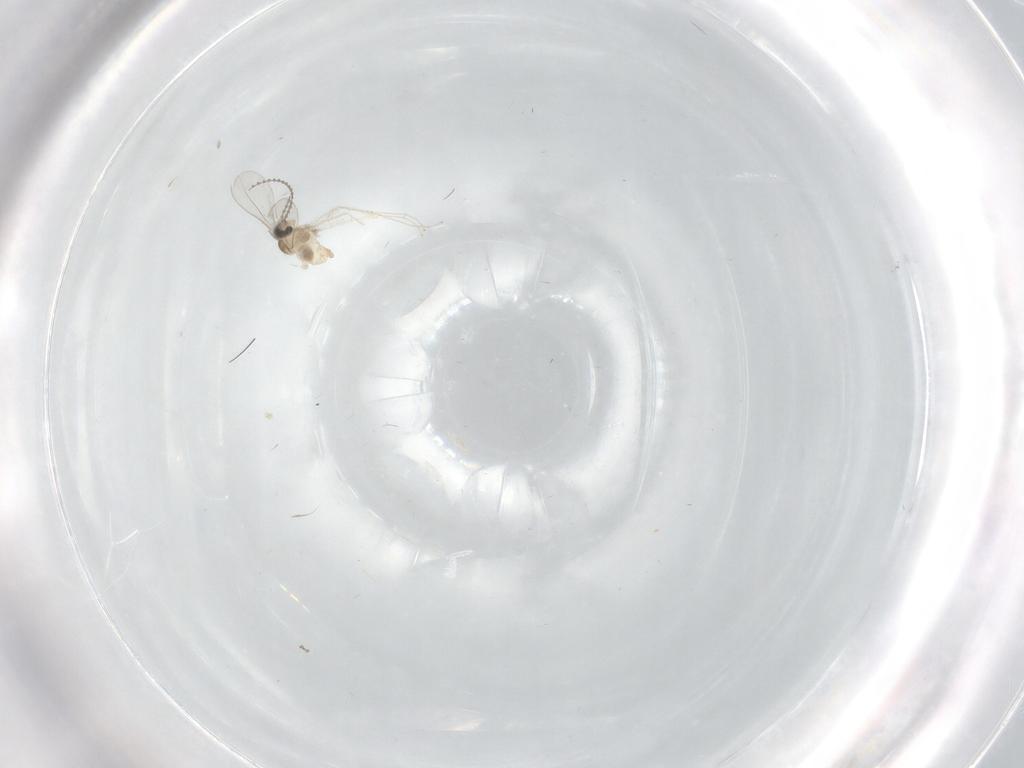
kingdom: Animalia
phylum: Arthropoda
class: Insecta
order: Diptera
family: Cecidomyiidae
